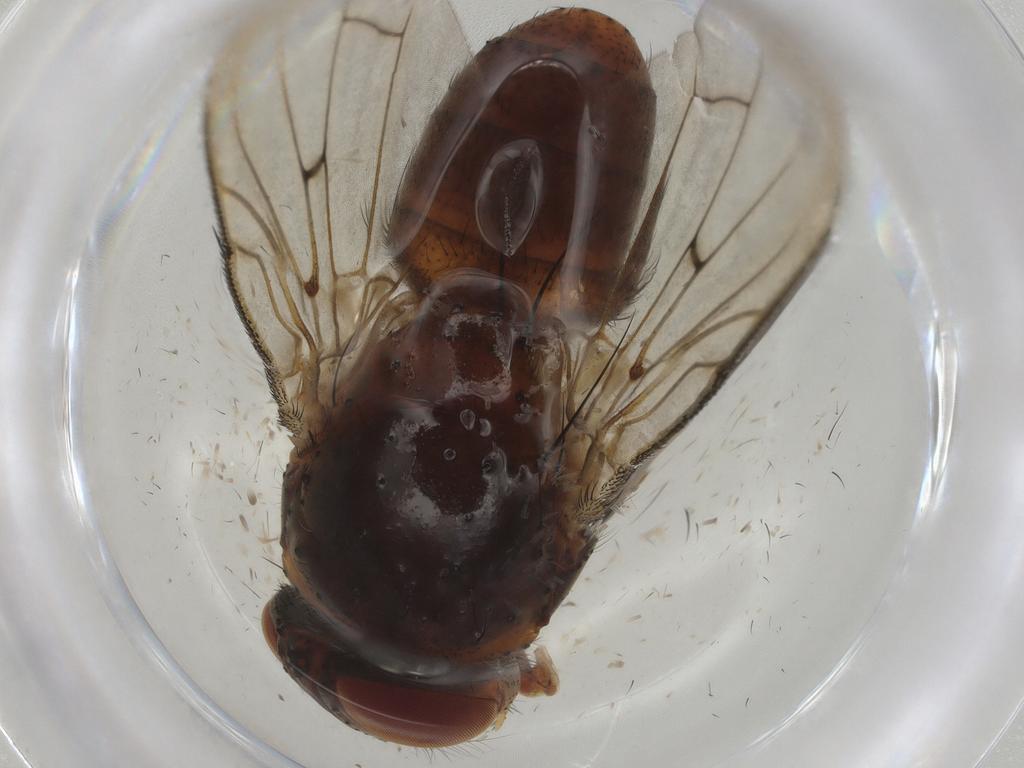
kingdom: Animalia
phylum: Arthropoda
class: Insecta
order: Diptera
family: Tachinidae
